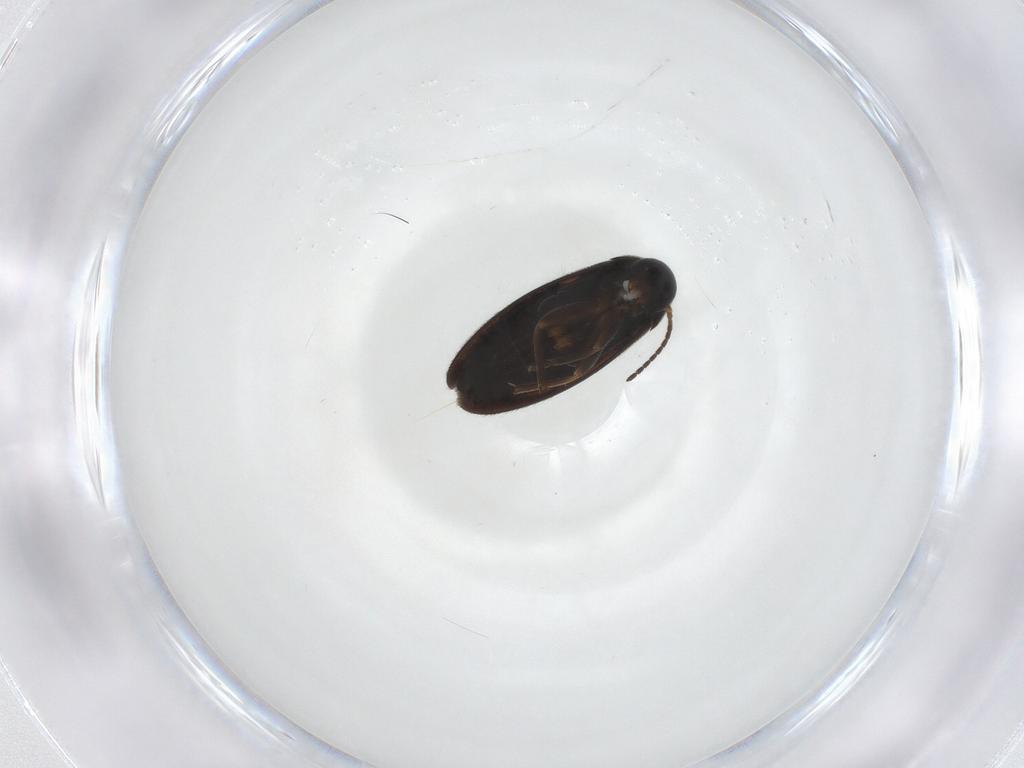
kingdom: Animalia
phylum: Arthropoda
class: Insecta
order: Coleoptera
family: Scraptiidae
